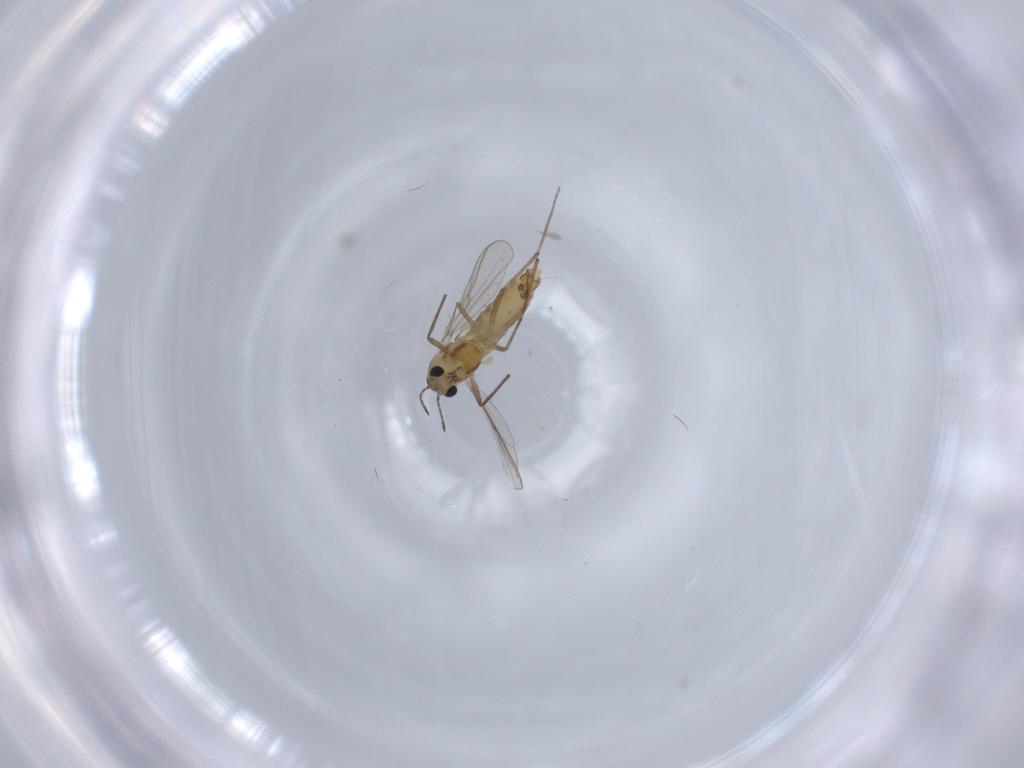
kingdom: Animalia
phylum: Arthropoda
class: Insecta
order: Diptera
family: Chironomidae
